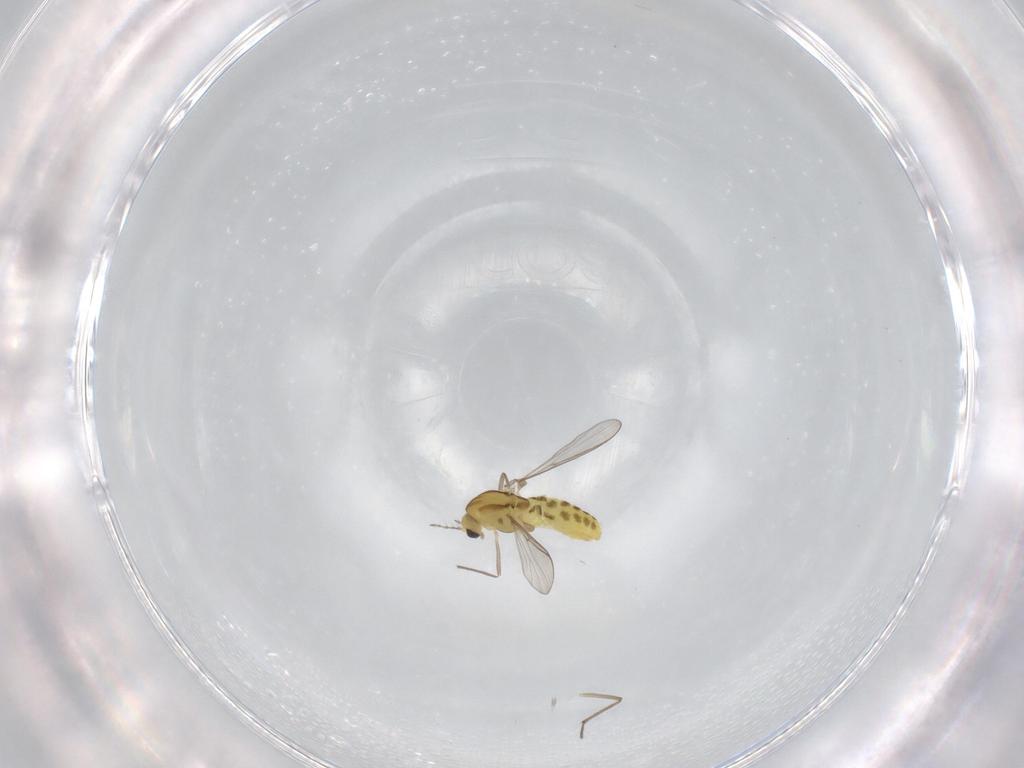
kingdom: Animalia
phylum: Arthropoda
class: Insecta
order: Diptera
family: Chironomidae
